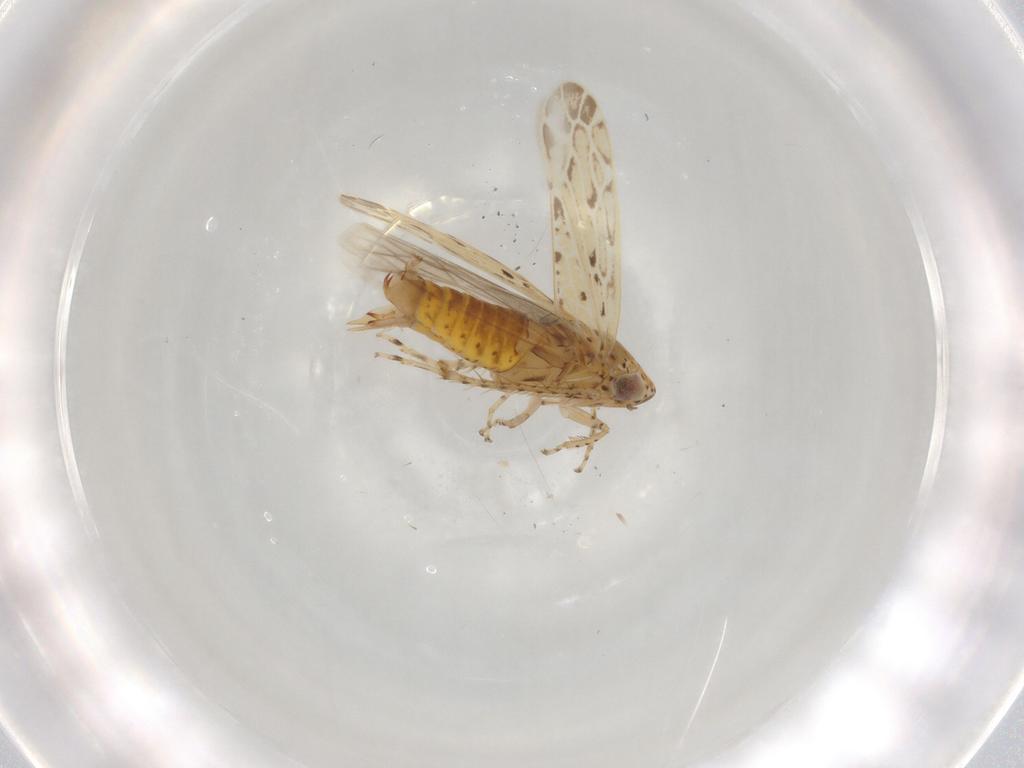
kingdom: Animalia
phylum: Arthropoda
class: Insecta
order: Hemiptera
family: Cicadellidae
